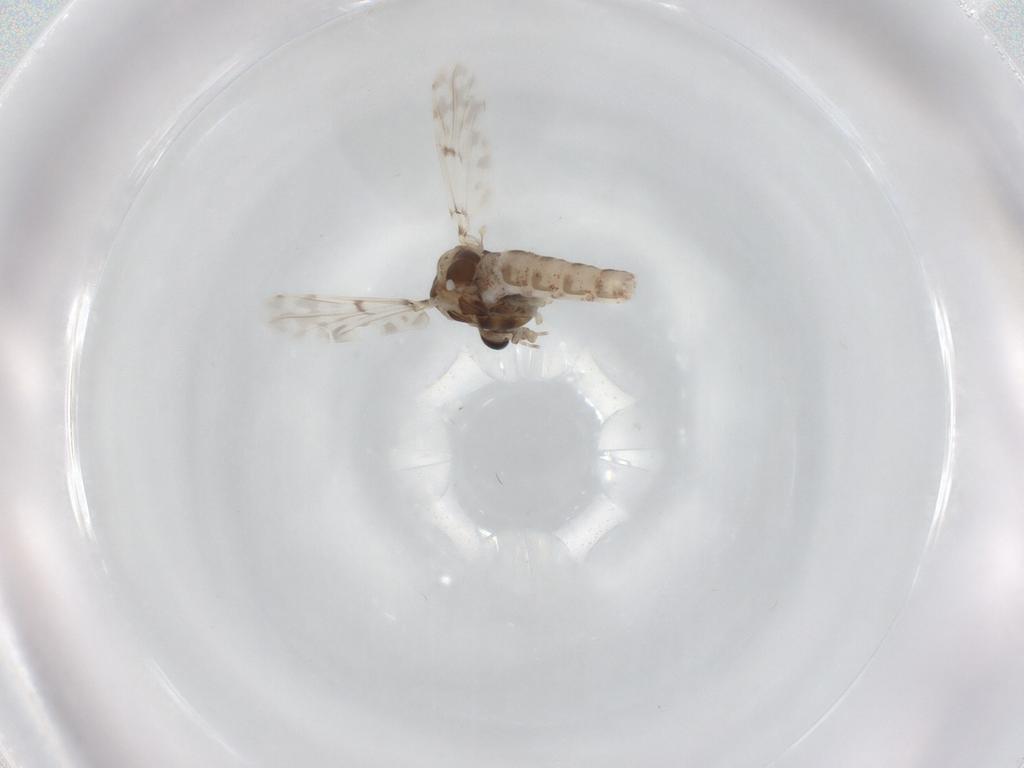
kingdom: Animalia
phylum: Arthropoda
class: Insecta
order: Diptera
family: Chironomidae
